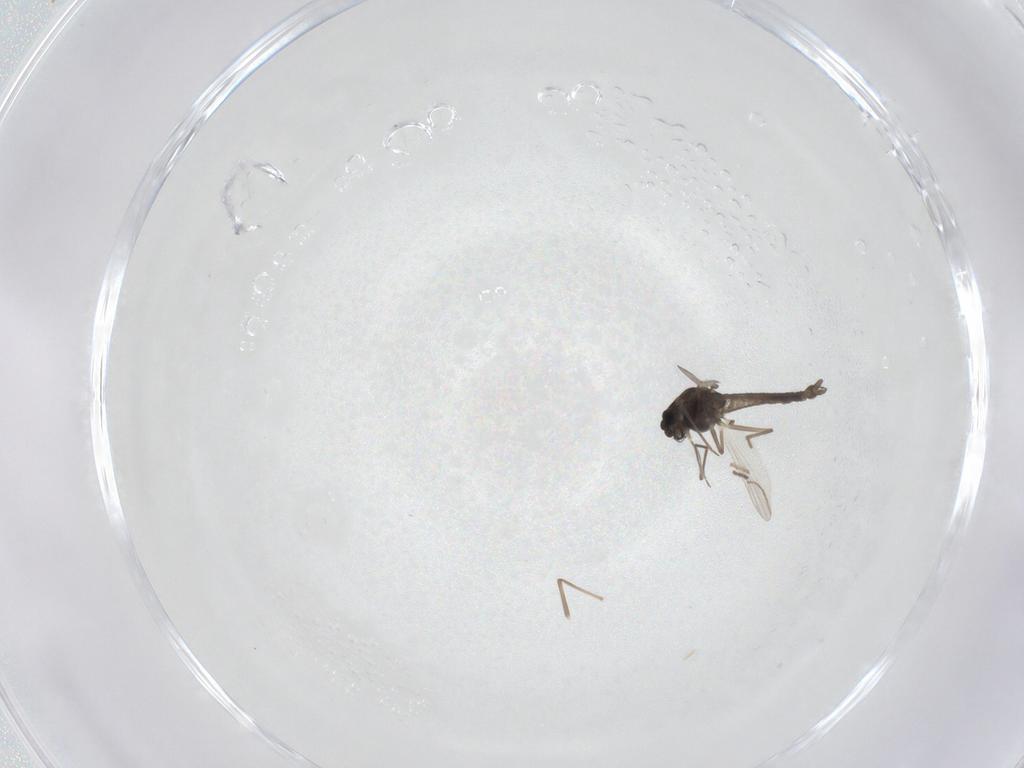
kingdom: Animalia
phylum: Arthropoda
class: Insecta
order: Diptera
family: Chironomidae
